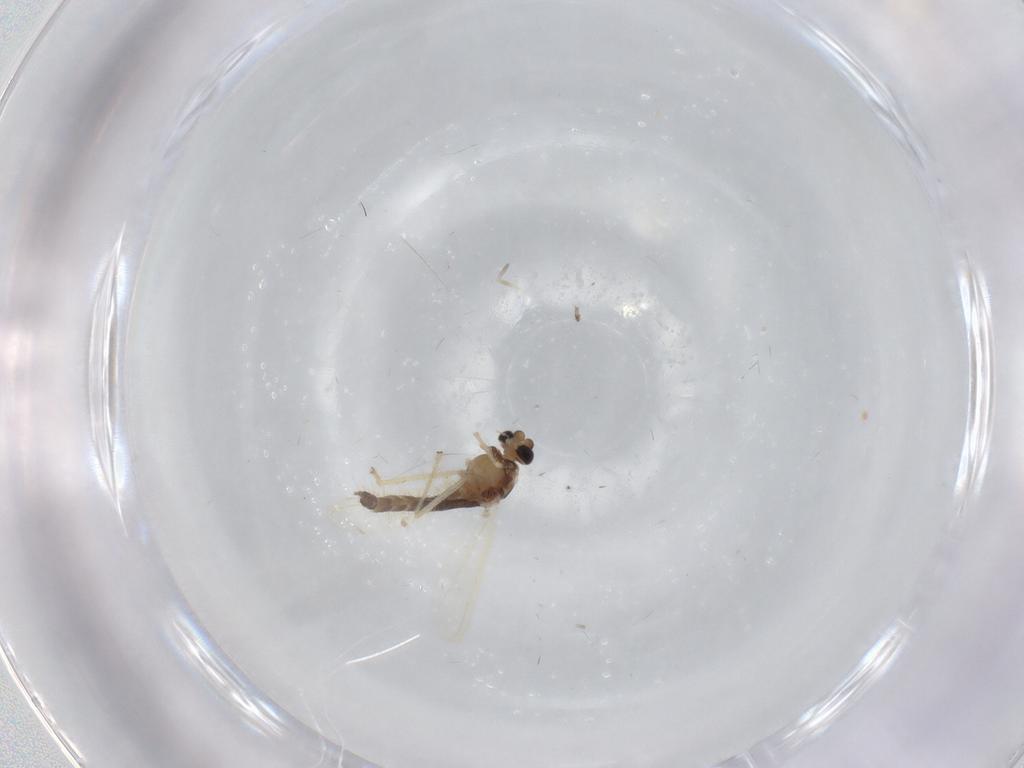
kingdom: Animalia
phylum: Arthropoda
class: Insecta
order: Diptera
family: Chironomidae
